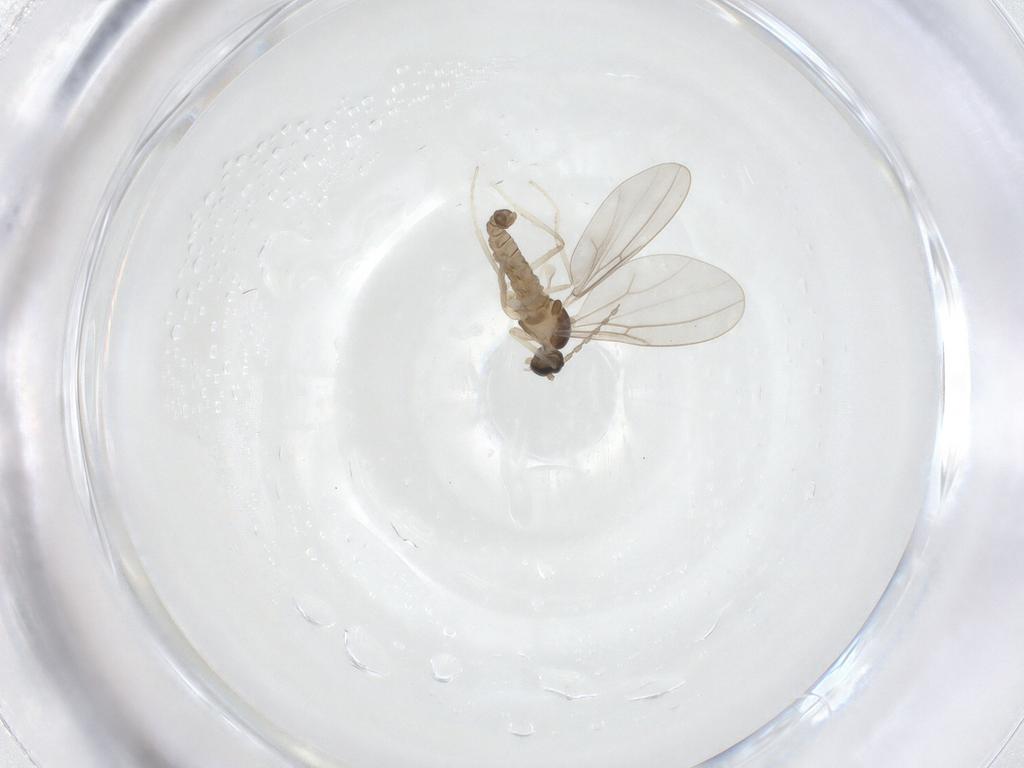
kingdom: Animalia
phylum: Arthropoda
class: Insecta
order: Diptera
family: Cecidomyiidae
